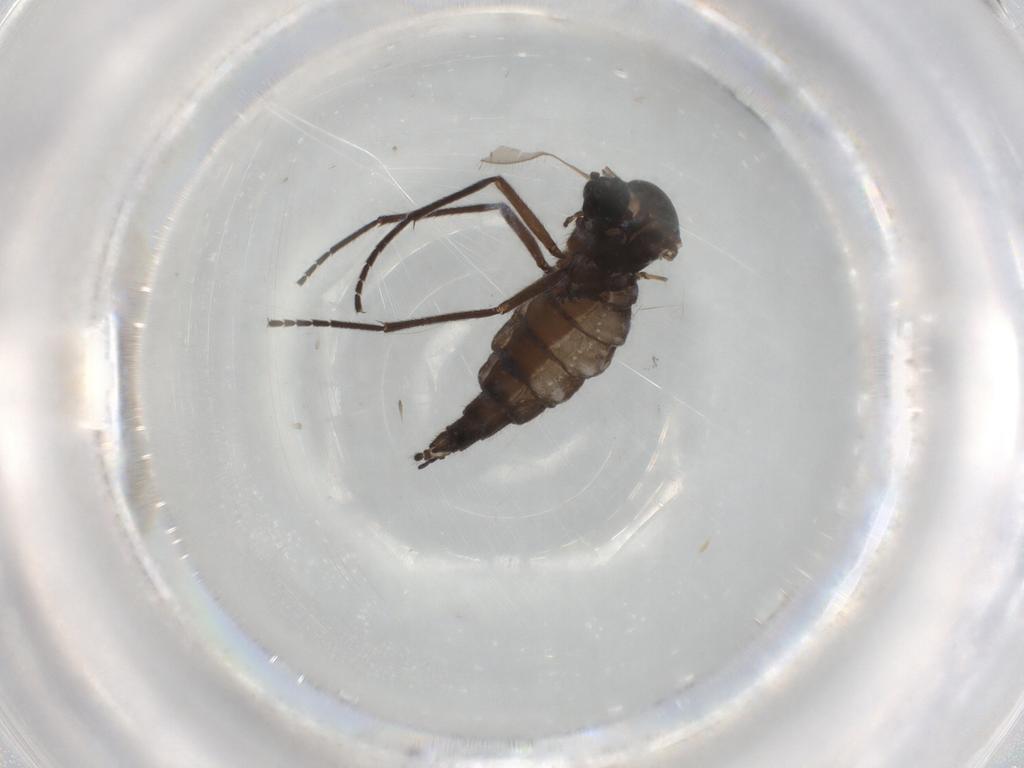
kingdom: Animalia
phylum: Arthropoda
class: Insecta
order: Diptera
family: Sciaridae
